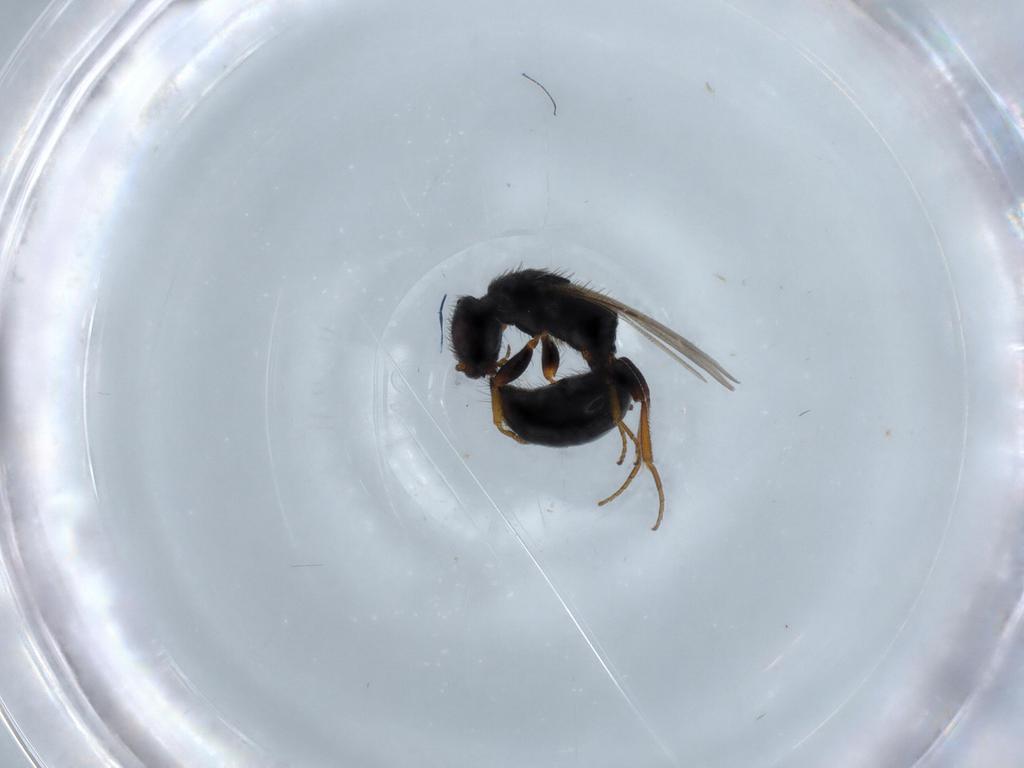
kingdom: Animalia
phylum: Arthropoda
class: Insecta
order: Hymenoptera
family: Bethylidae
